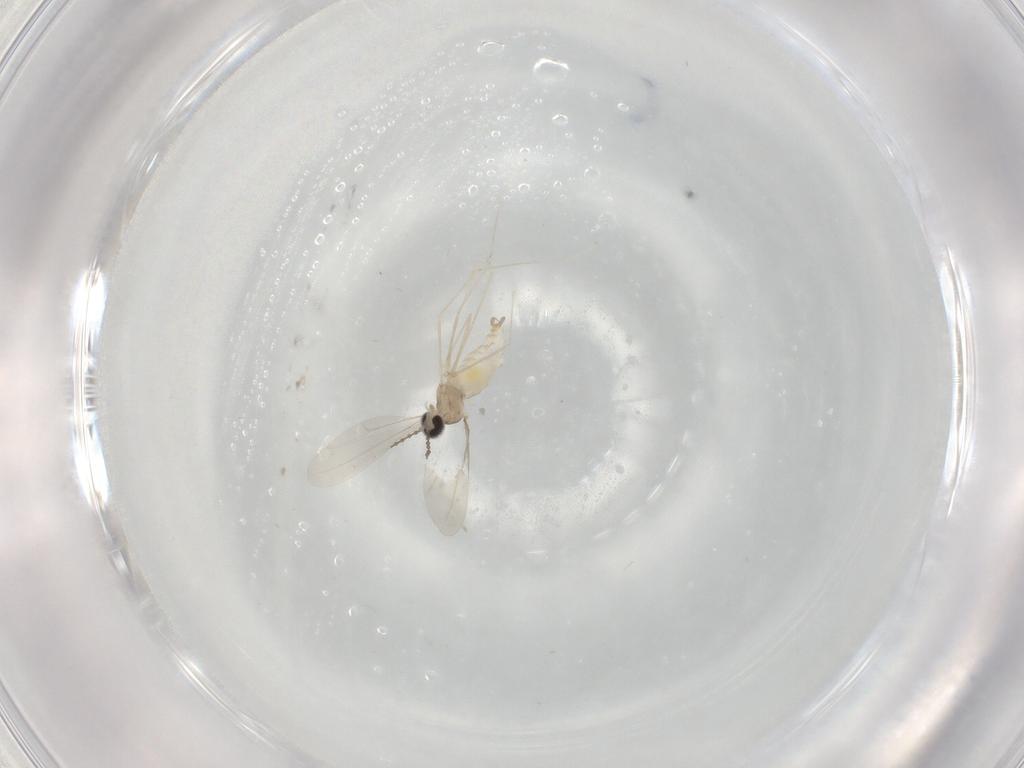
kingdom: Animalia
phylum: Arthropoda
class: Insecta
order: Diptera
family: Cecidomyiidae
